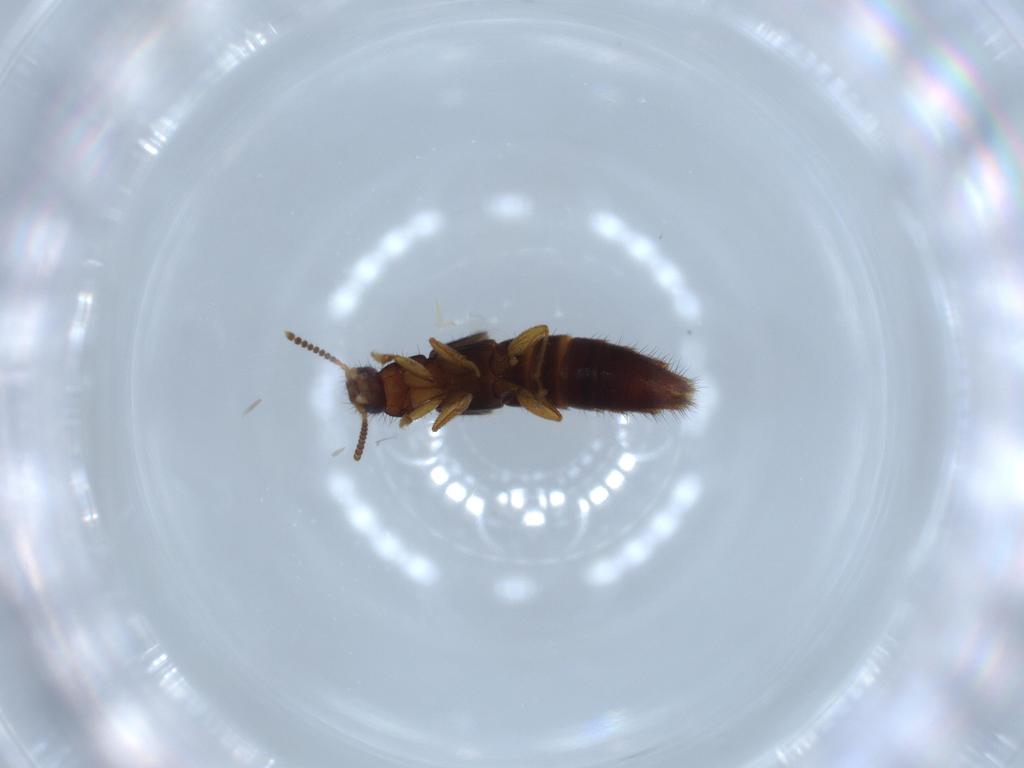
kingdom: Animalia
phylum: Arthropoda
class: Insecta
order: Coleoptera
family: Staphylinidae
